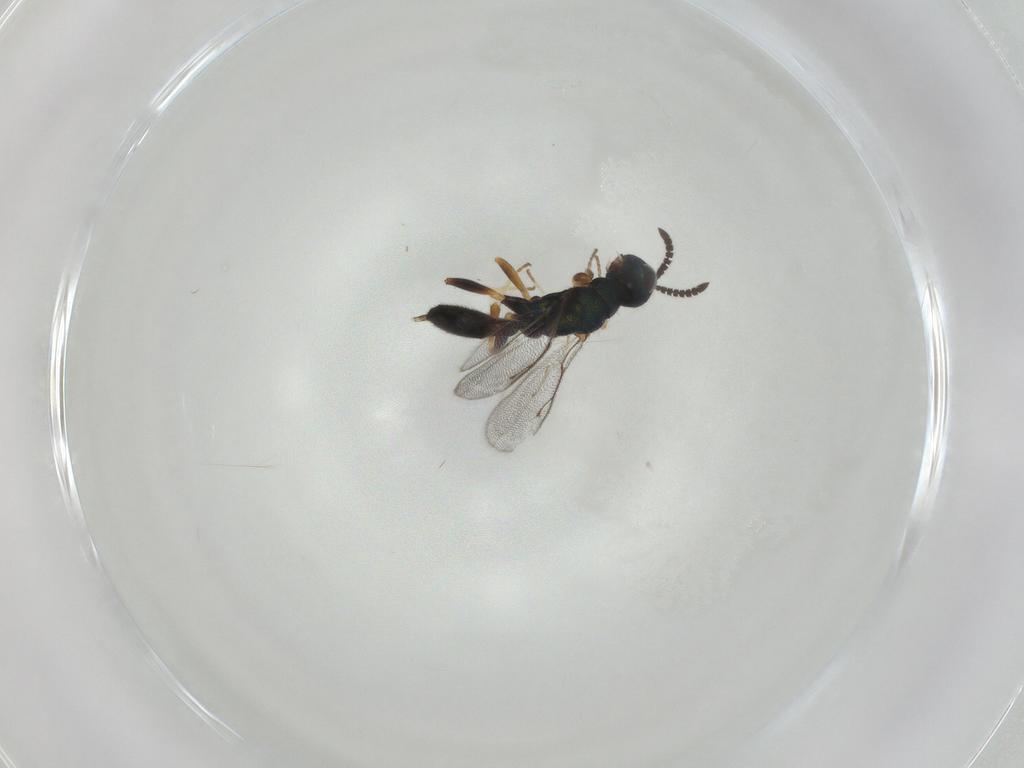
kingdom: Animalia
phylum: Arthropoda
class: Insecta
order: Hymenoptera
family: Cleonyminae
